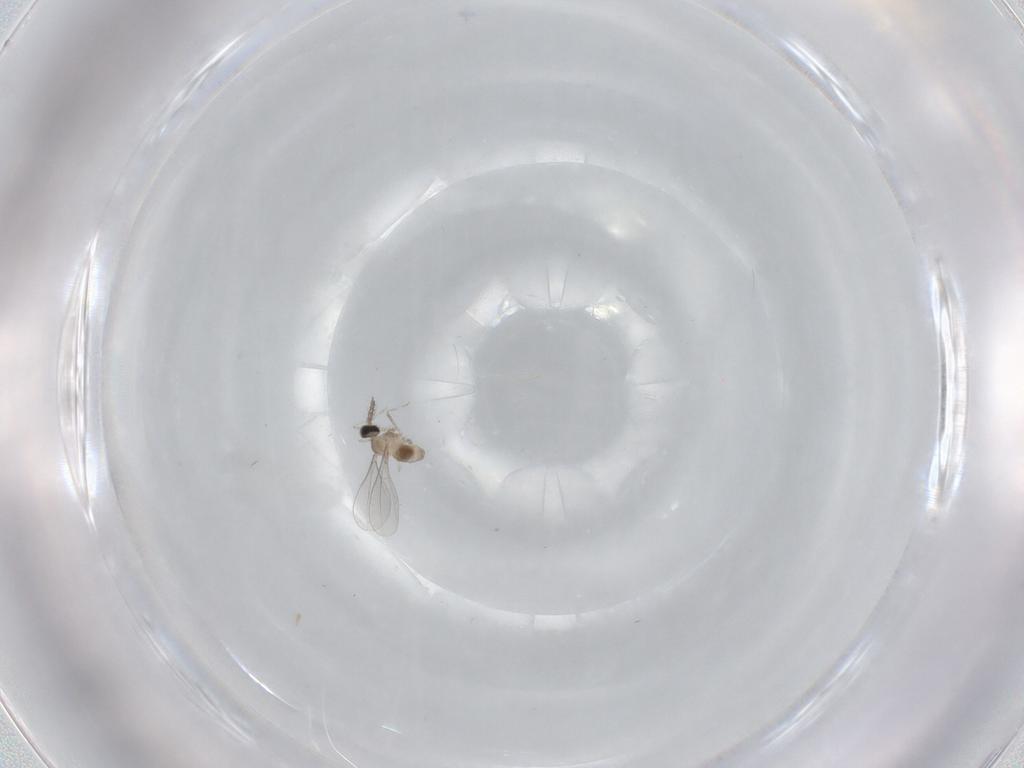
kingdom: Animalia
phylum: Arthropoda
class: Insecta
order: Diptera
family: Cecidomyiidae
